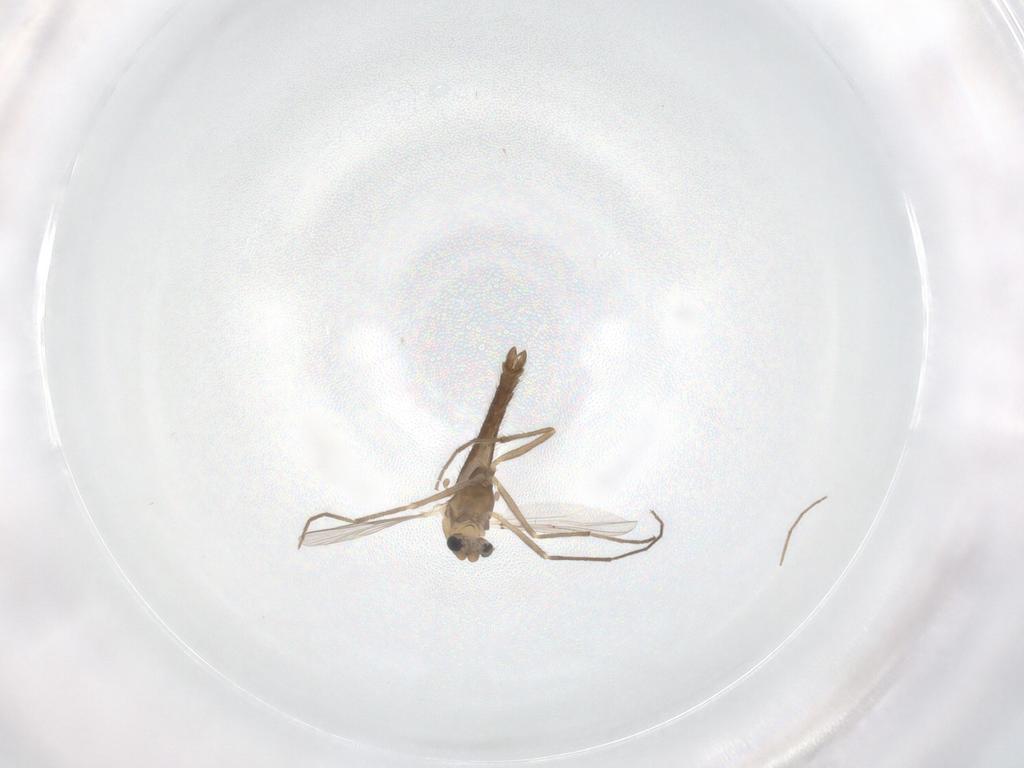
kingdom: Animalia
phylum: Arthropoda
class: Insecta
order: Diptera
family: Chironomidae
